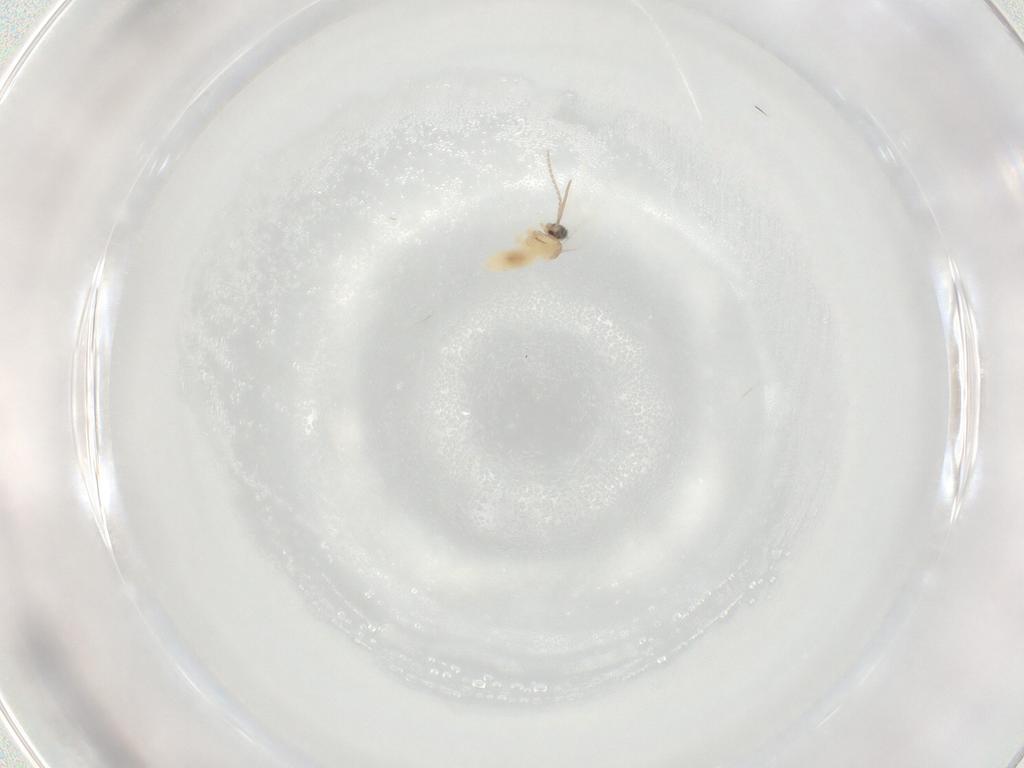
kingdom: Animalia
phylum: Arthropoda
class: Insecta
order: Diptera
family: Cecidomyiidae
